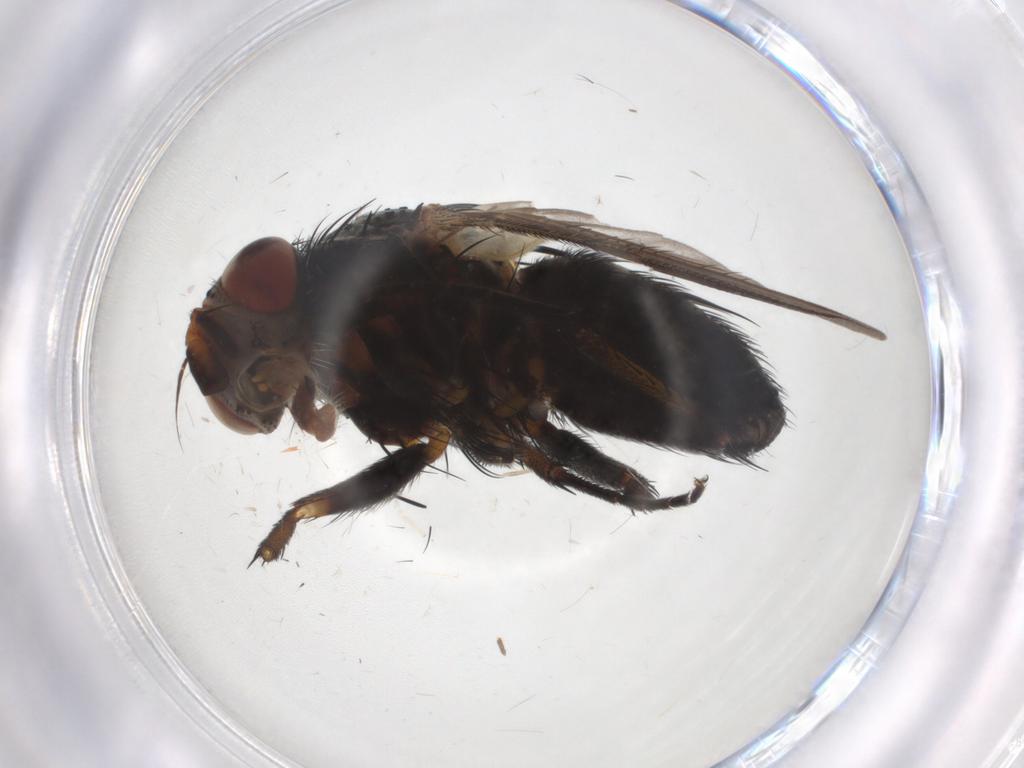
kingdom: Animalia
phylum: Arthropoda
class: Insecta
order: Diptera
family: Tachinidae
